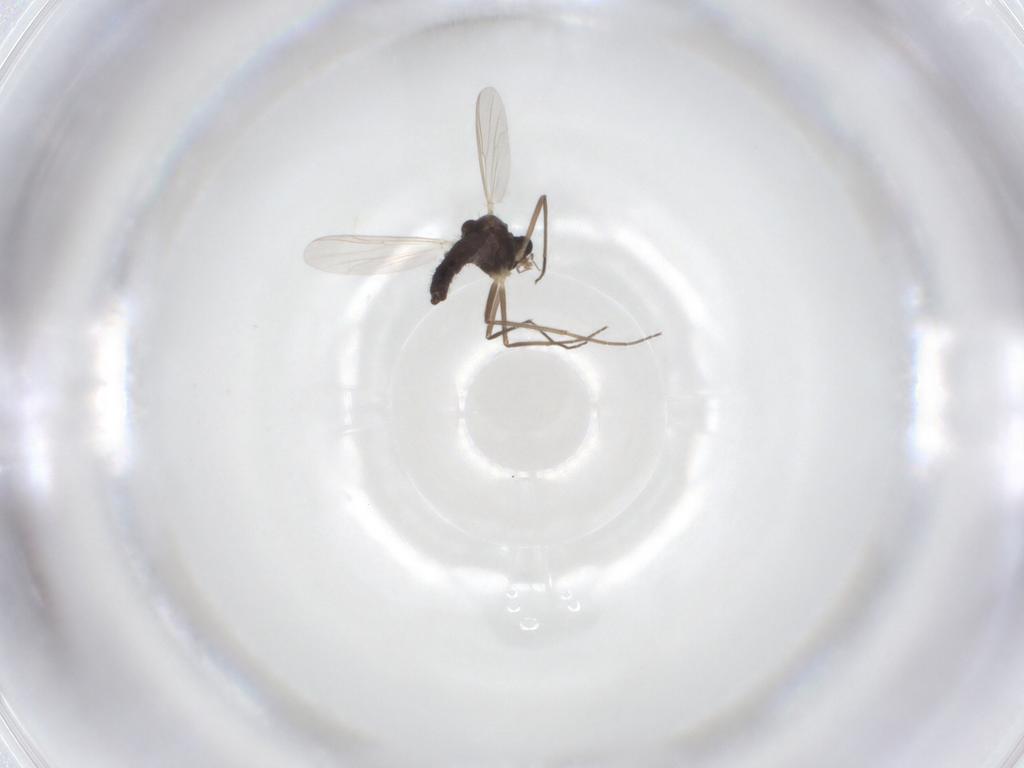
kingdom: Animalia
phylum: Arthropoda
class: Insecta
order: Diptera
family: Chironomidae
